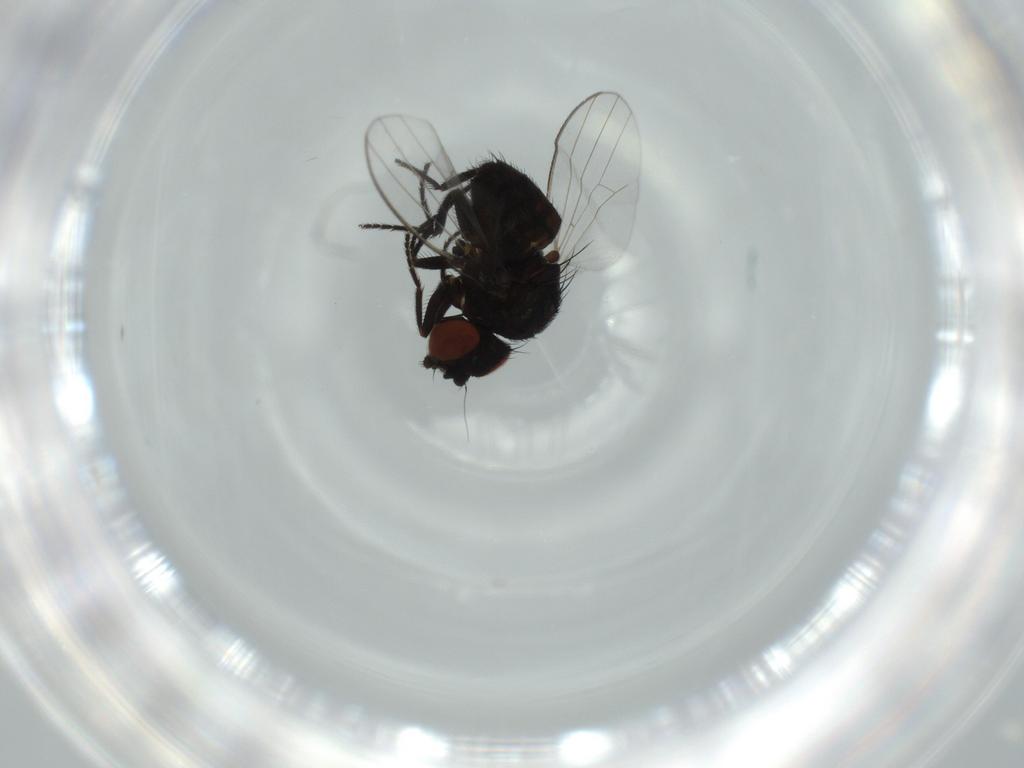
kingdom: Animalia
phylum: Arthropoda
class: Insecta
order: Diptera
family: Milichiidae
